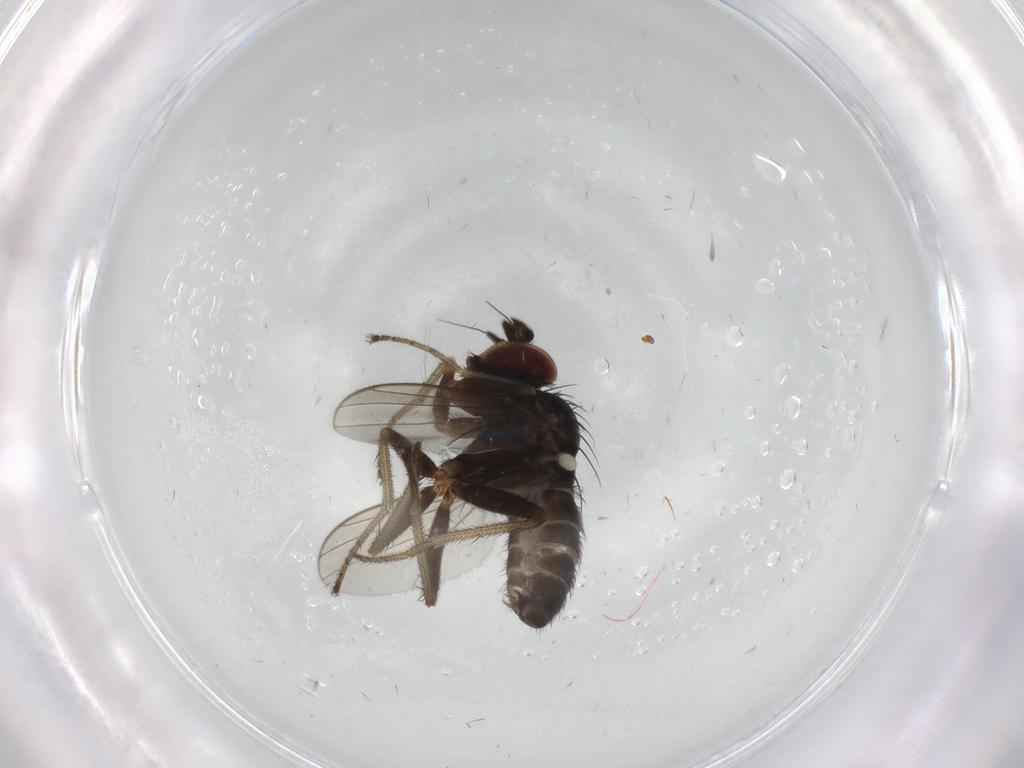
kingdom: Animalia
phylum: Arthropoda
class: Insecta
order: Diptera
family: Dolichopodidae
